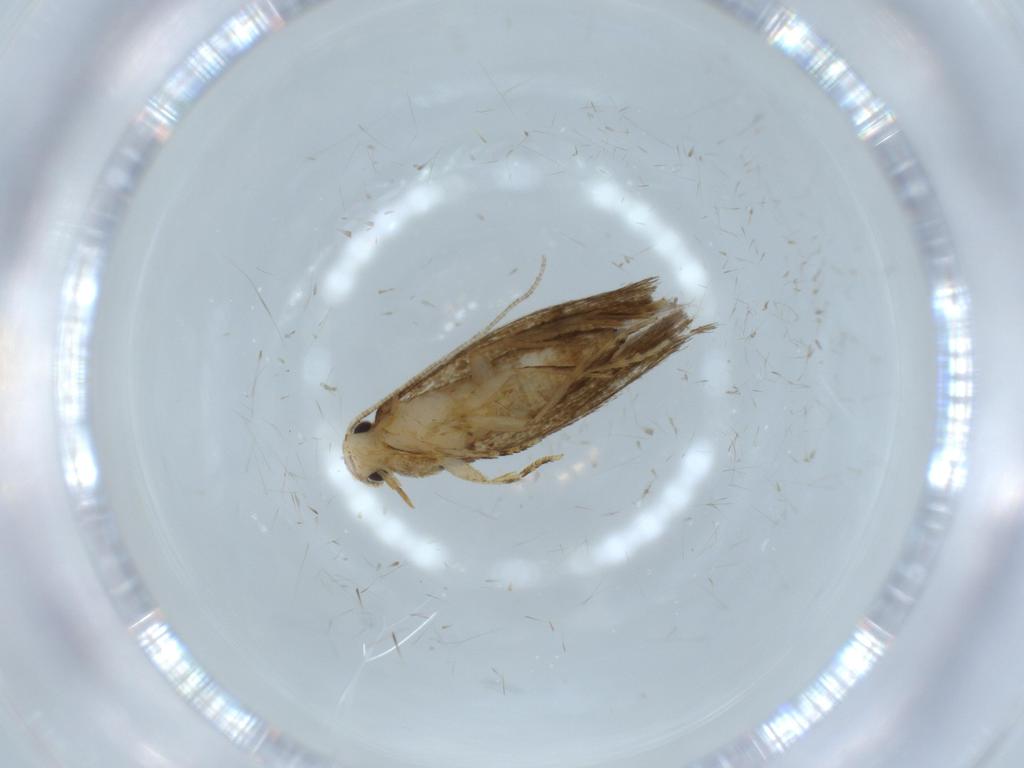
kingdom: Animalia
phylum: Arthropoda
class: Insecta
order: Lepidoptera
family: Tineidae
